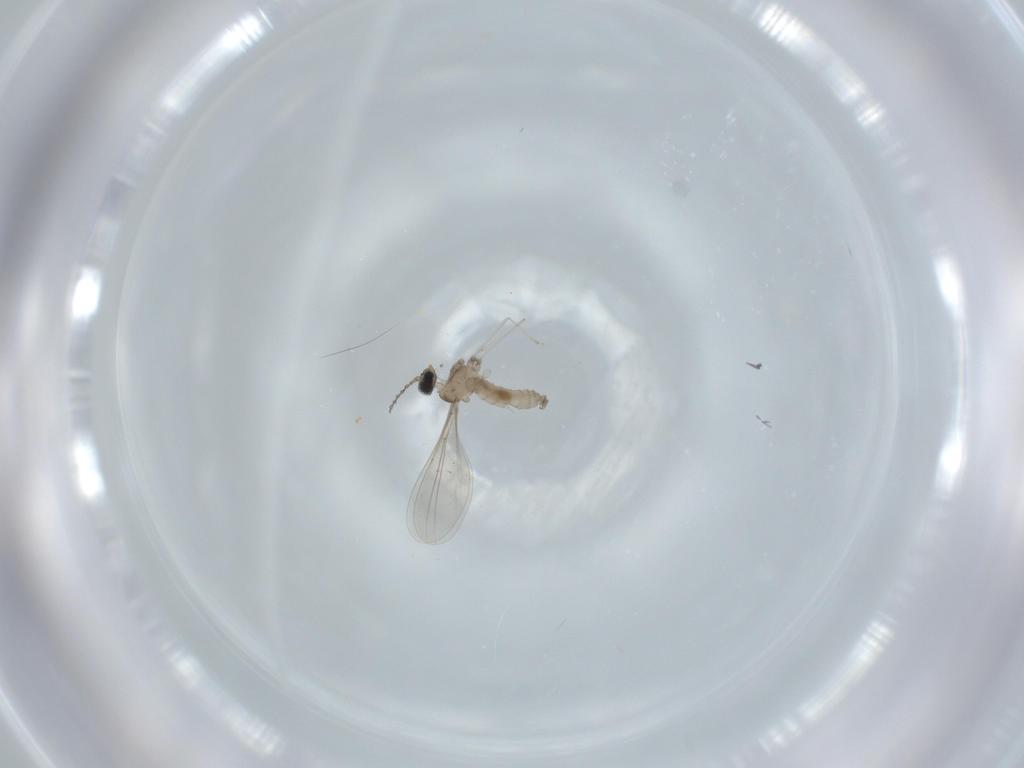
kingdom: Animalia
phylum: Arthropoda
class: Insecta
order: Diptera
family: Cecidomyiidae
